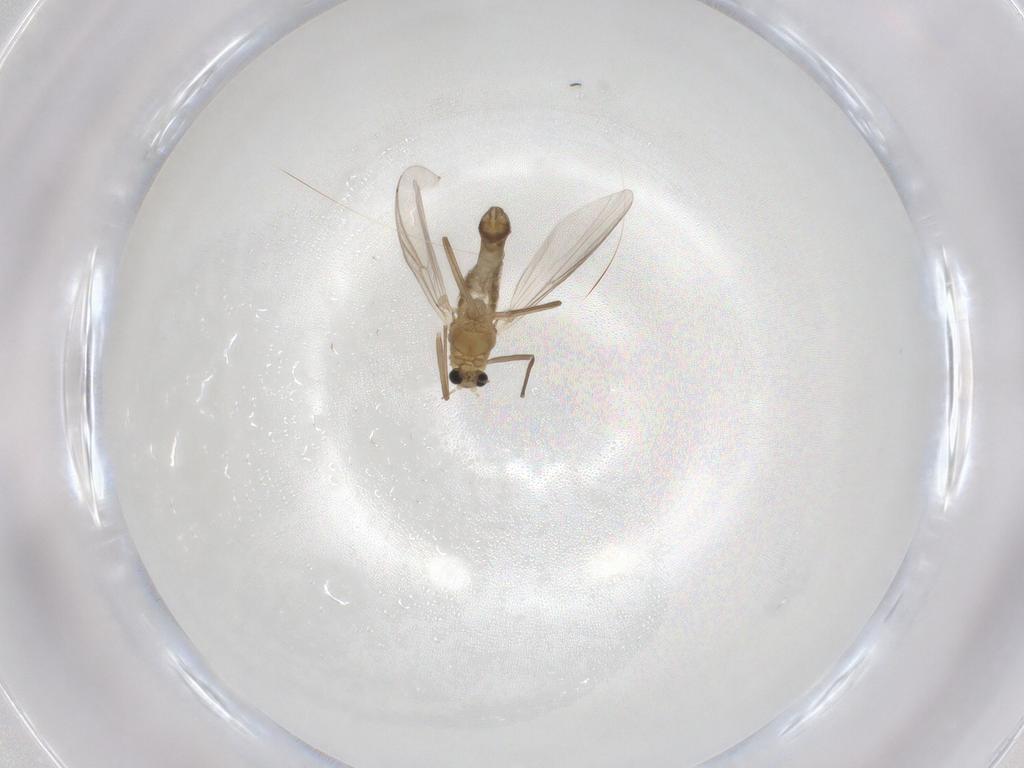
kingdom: Animalia
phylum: Arthropoda
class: Insecta
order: Diptera
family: Chironomidae
